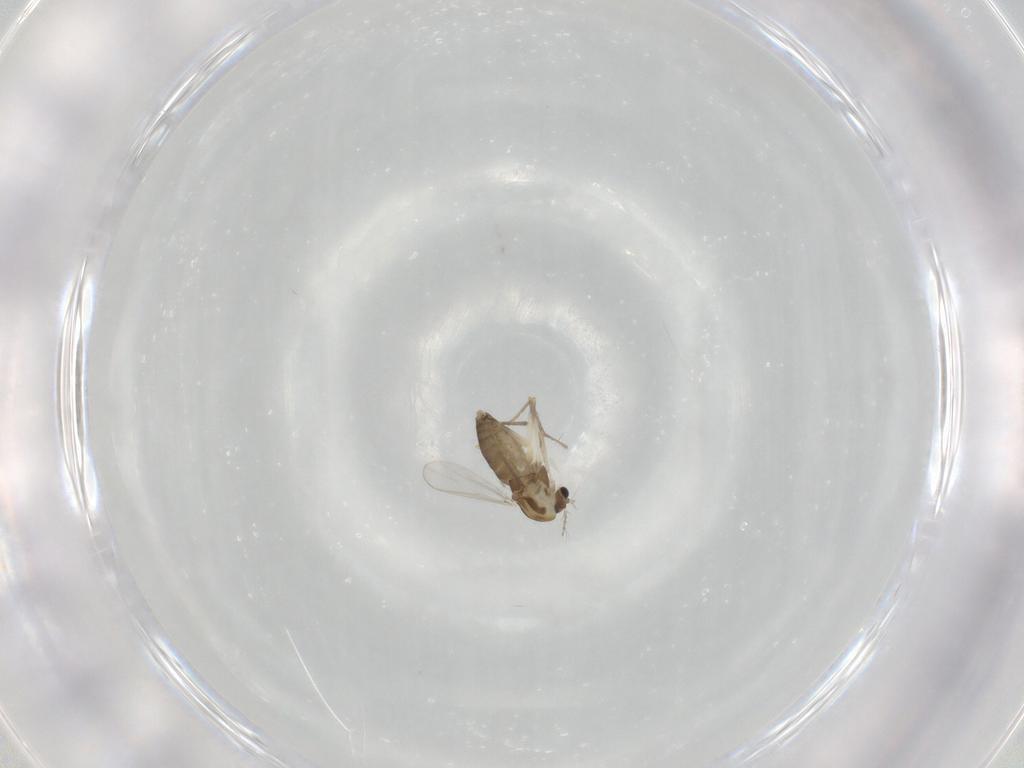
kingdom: Animalia
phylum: Arthropoda
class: Insecta
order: Diptera
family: Chironomidae
